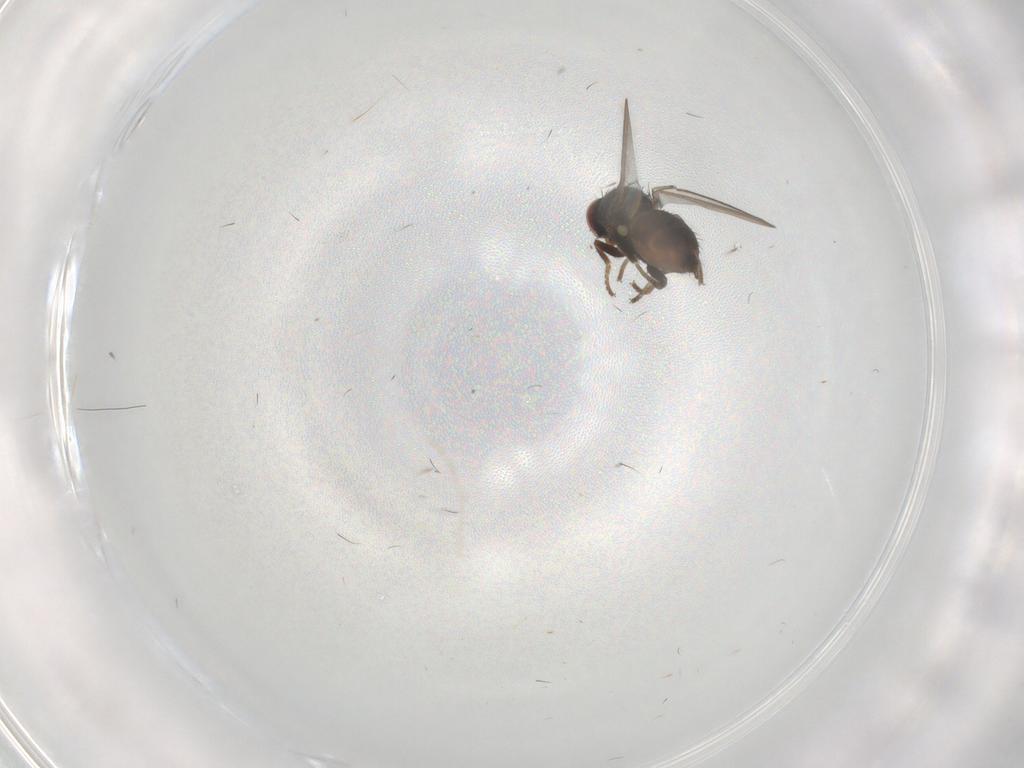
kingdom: Animalia
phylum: Arthropoda
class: Insecta
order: Diptera
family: Milichiidae
